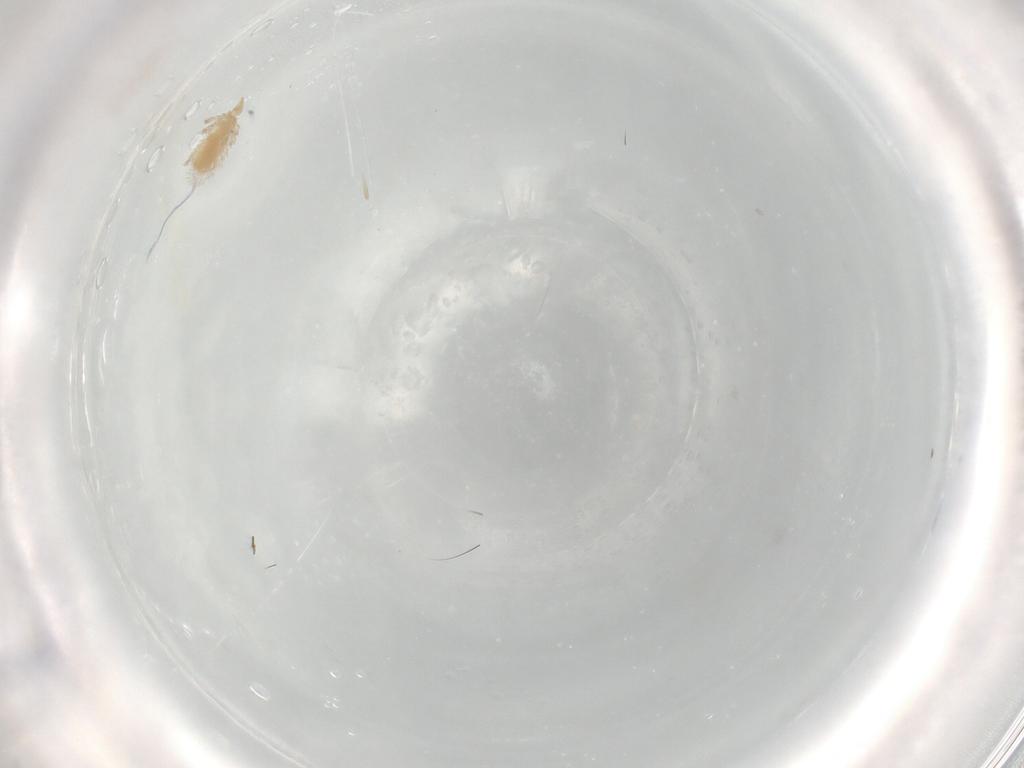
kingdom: Animalia
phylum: Arthropoda
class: Arachnida
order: Trombidiformes
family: Erythraeidae
